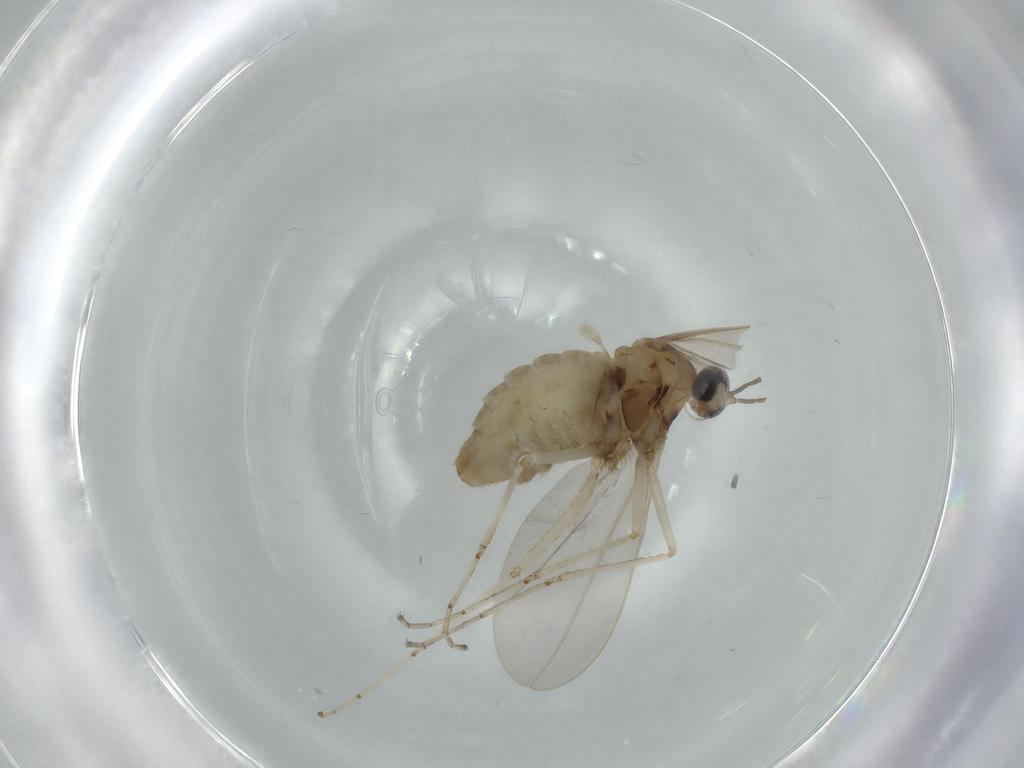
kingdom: Animalia
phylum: Arthropoda
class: Insecta
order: Diptera
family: Cecidomyiidae
